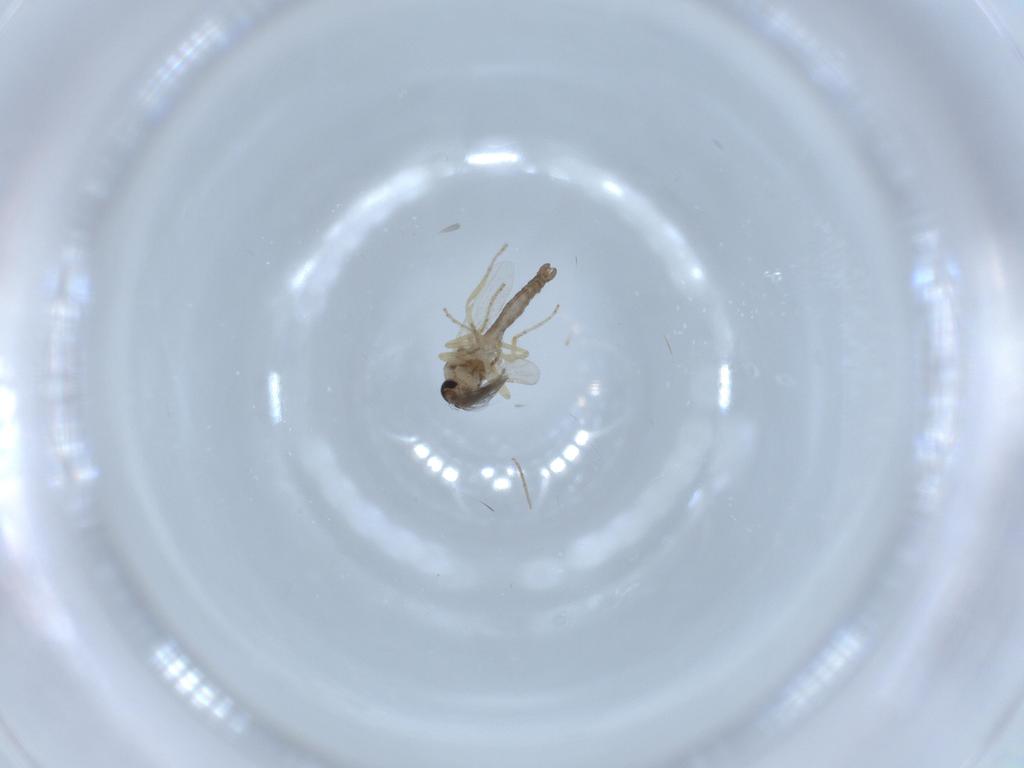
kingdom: Animalia
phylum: Arthropoda
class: Insecta
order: Diptera
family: Ceratopogonidae
